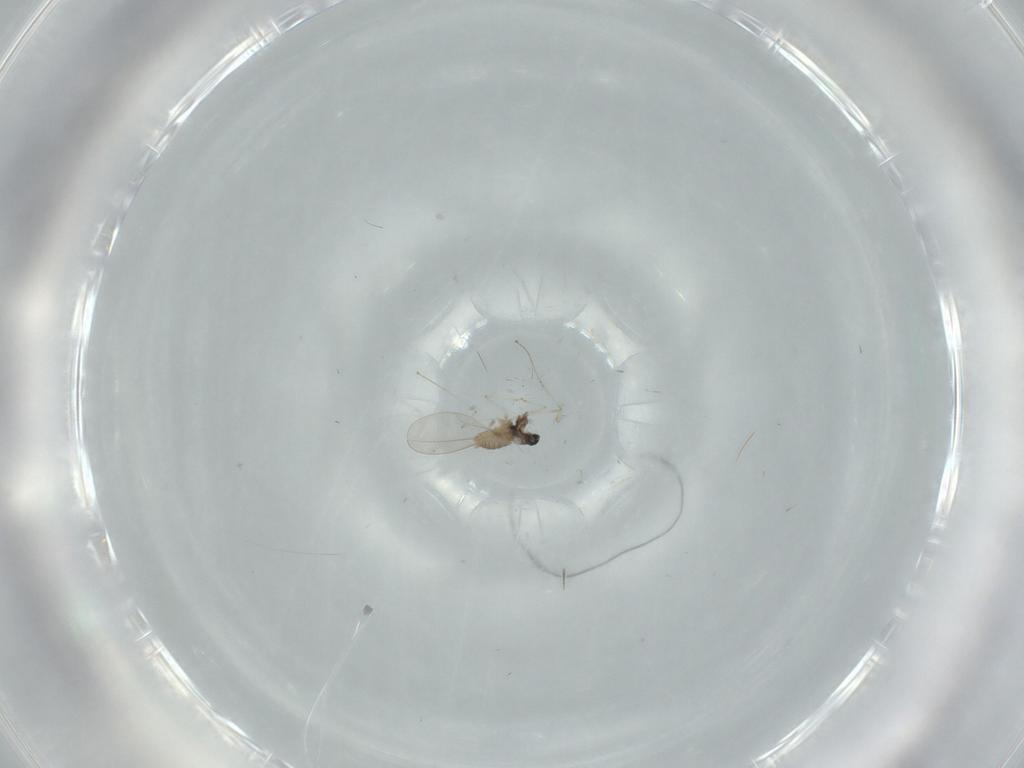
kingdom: Animalia
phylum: Arthropoda
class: Insecta
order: Diptera
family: Cecidomyiidae
